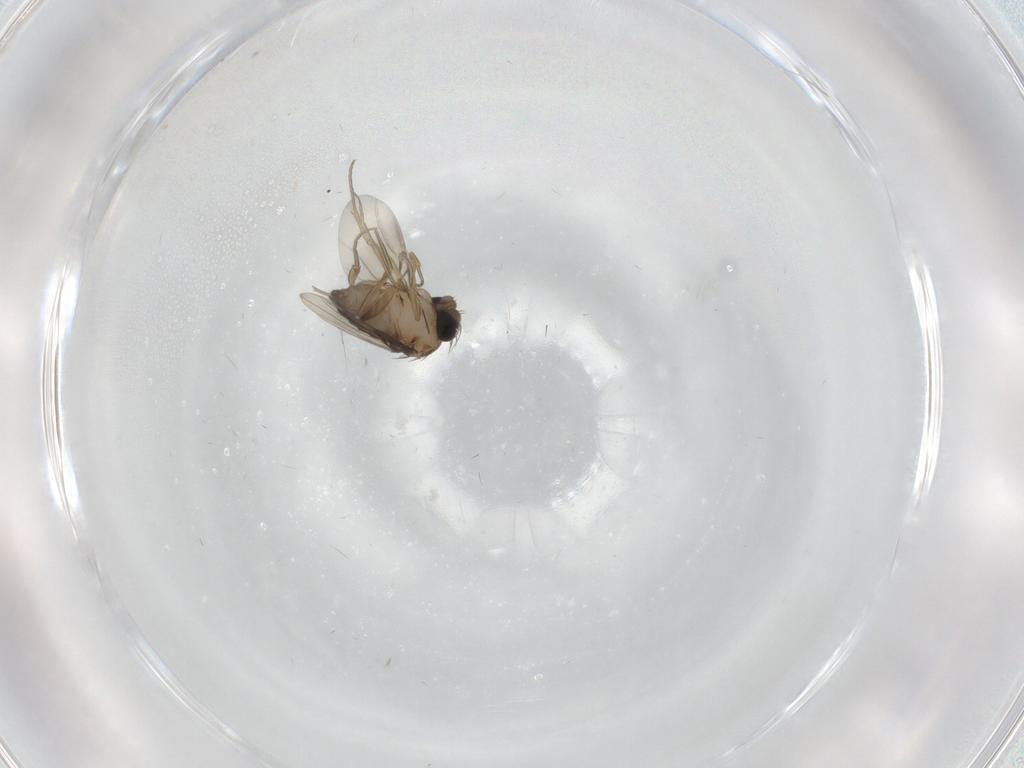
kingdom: Animalia
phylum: Arthropoda
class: Insecta
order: Diptera
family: Phoridae
